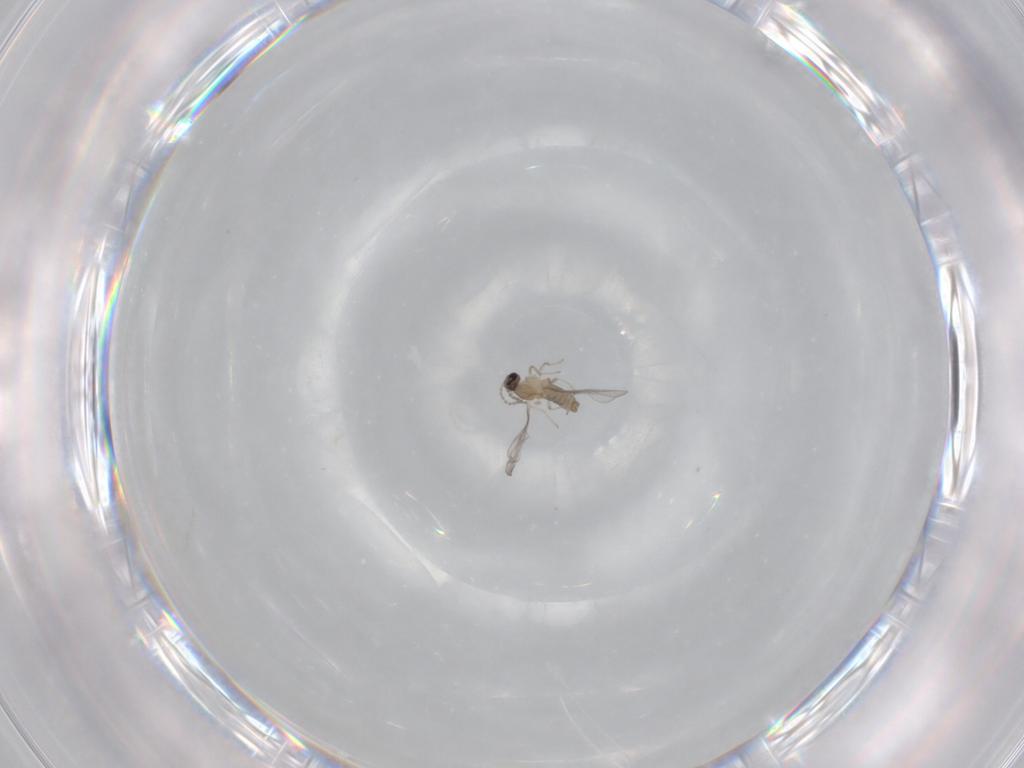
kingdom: Animalia
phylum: Arthropoda
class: Insecta
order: Diptera
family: Cecidomyiidae
